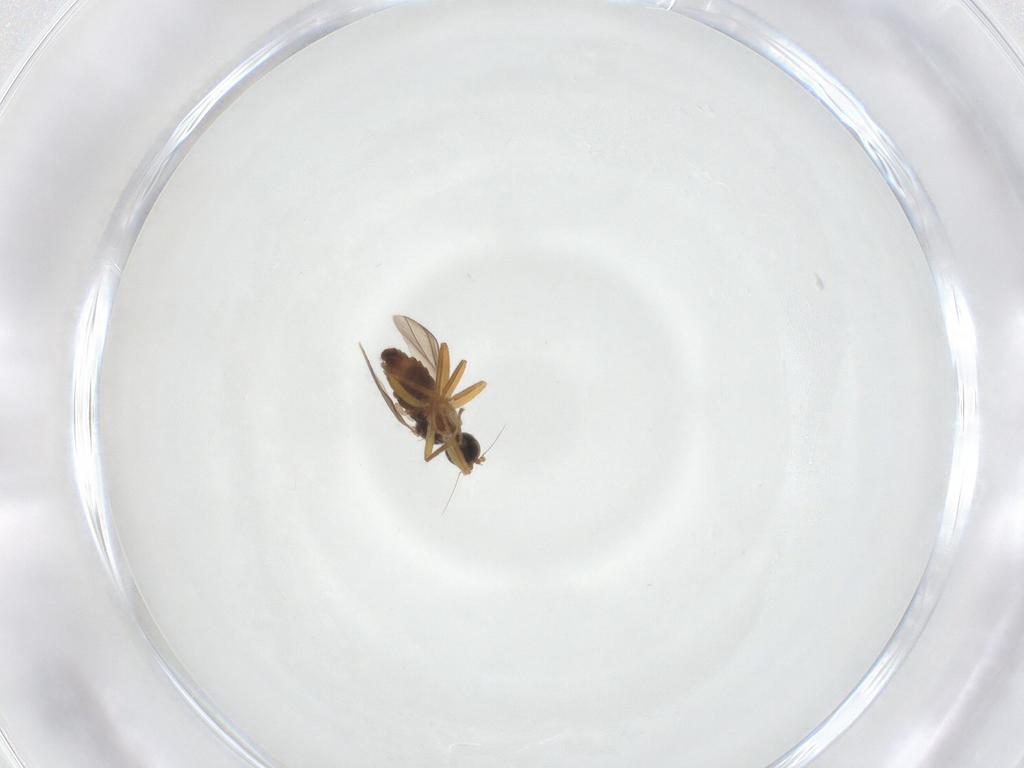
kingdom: Animalia
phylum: Arthropoda
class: Insecta
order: Diptera
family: Hybotidae
